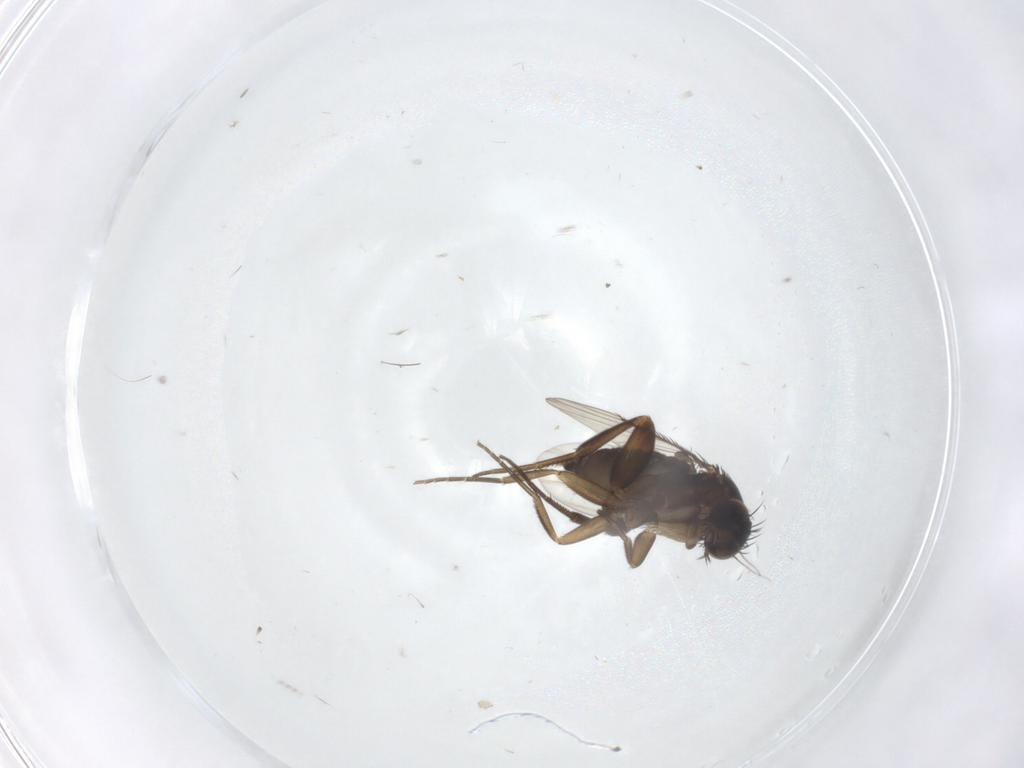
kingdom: Animalia
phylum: Arthropoda
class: Insecta
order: Diptera
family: Phoridae
